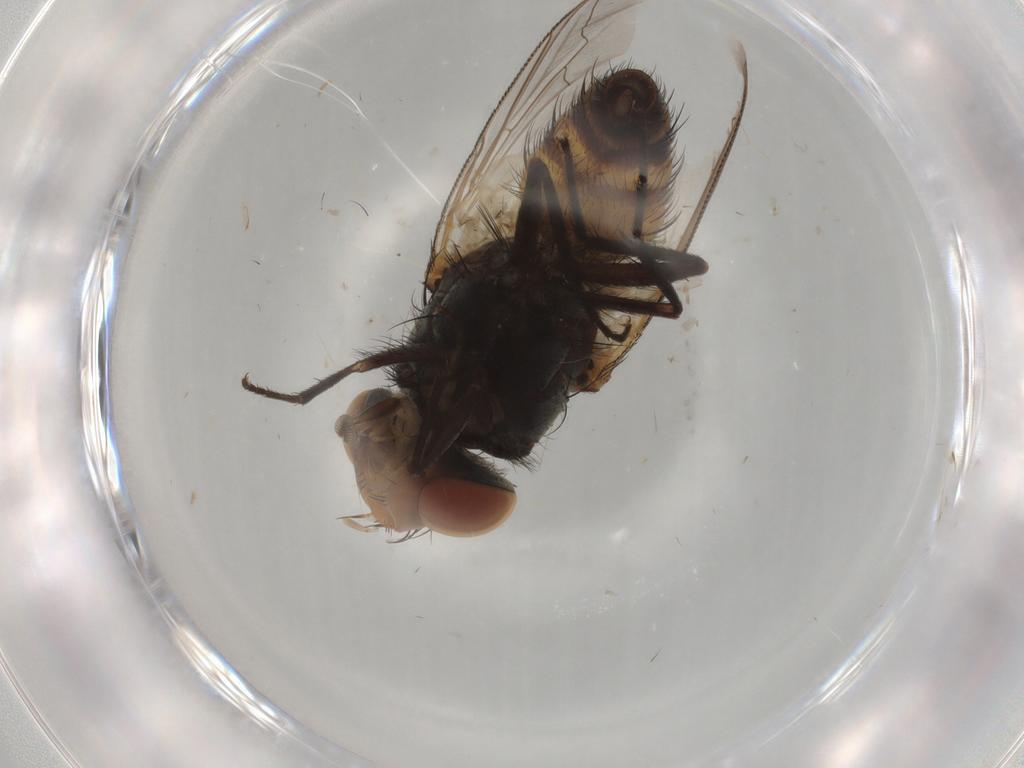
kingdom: Animalia
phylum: Arthropoda
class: Insecta
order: Diptera
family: Sarcophagidae
